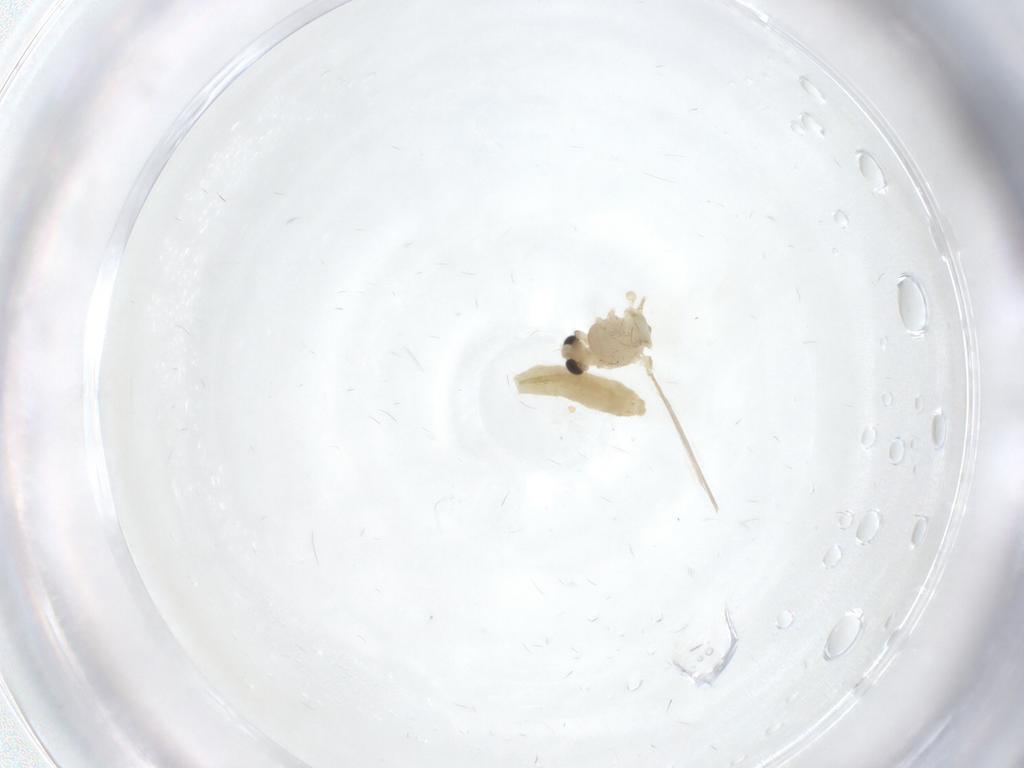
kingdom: Animalia
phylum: Arthropoda
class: Insecta
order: Diptera
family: Chironomidae
